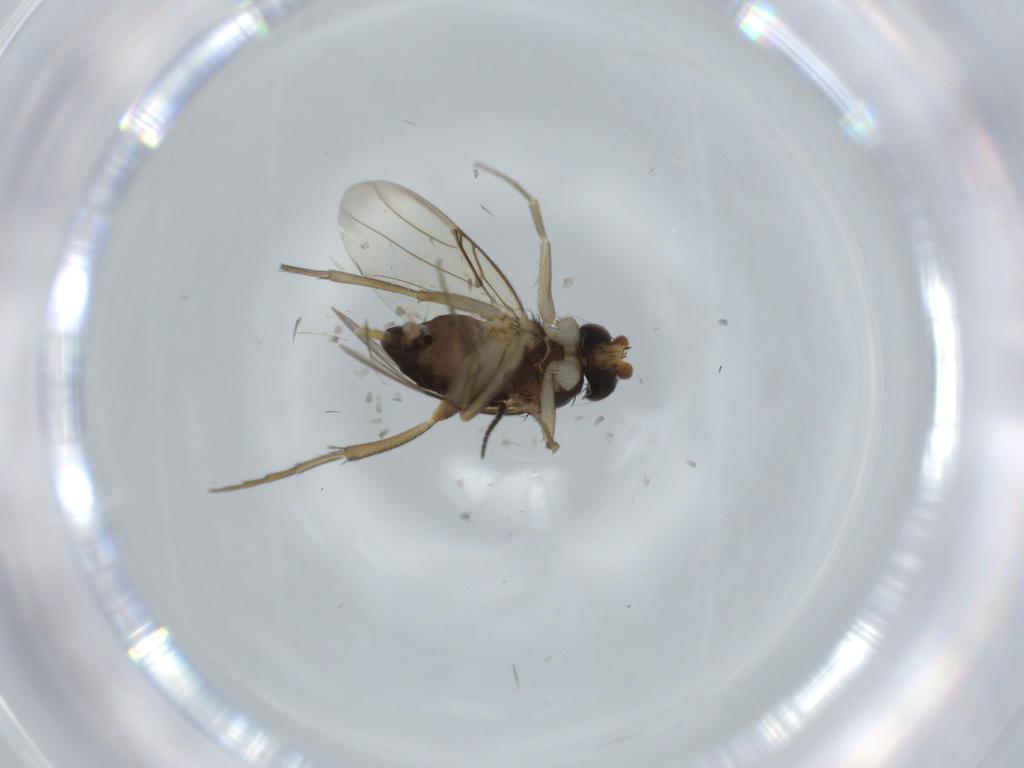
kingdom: Animalia
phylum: Arthropoda
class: Insecta
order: Diptera
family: Phoridae
